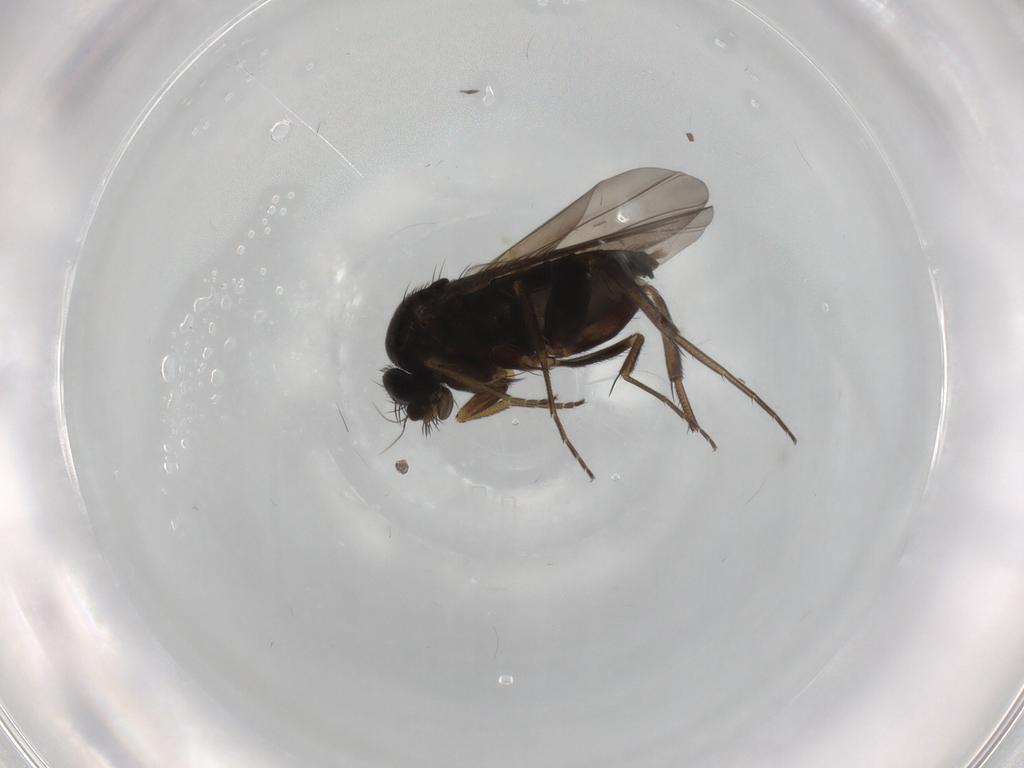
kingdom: Animalia
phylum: Arthropoda
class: Insecta
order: Diptera
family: Phoridae
